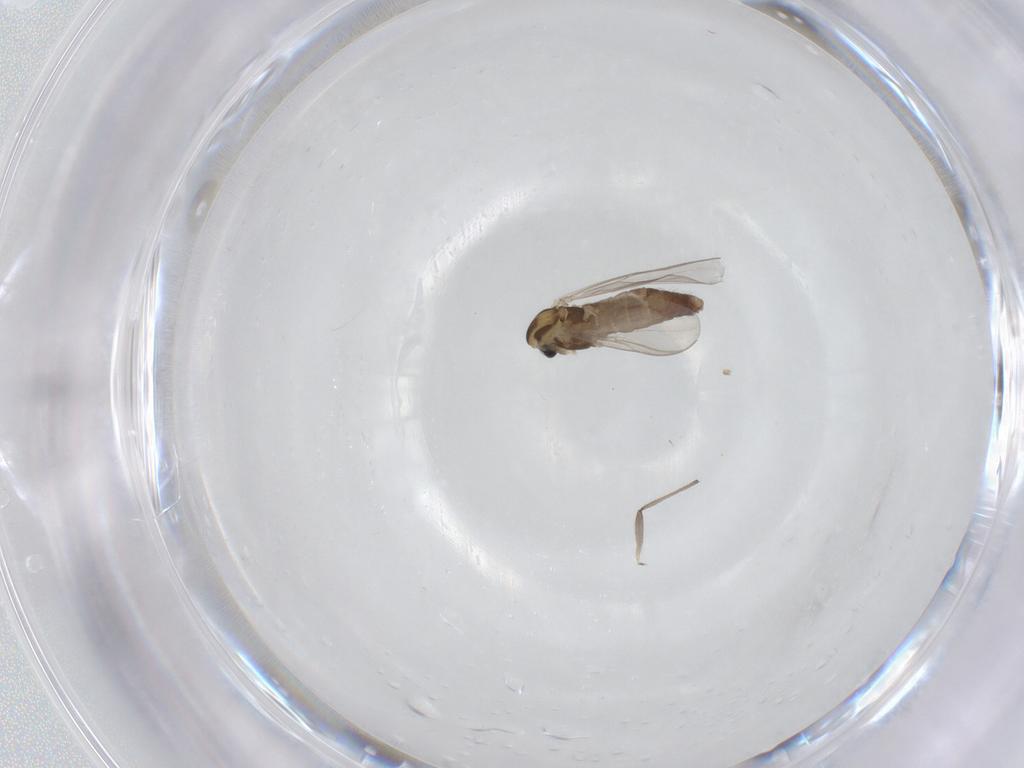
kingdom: Animalia
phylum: Arthropoda
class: Insecta
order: Diptera
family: Chironomidae
